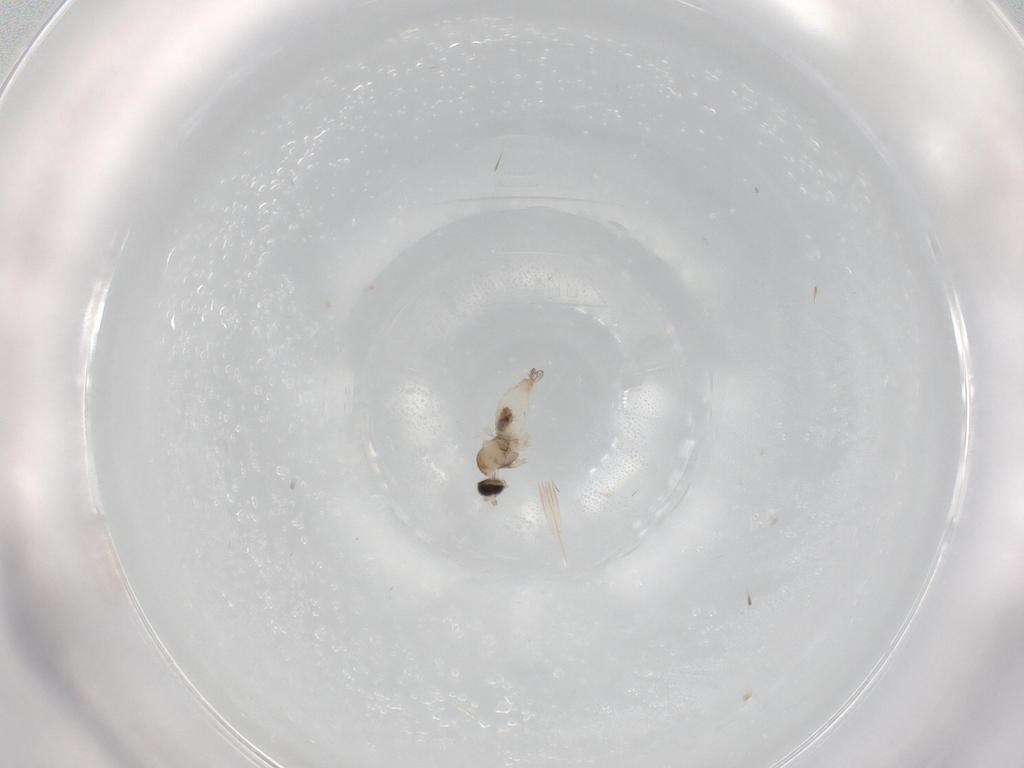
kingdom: Animalia
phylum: Arthropoda
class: Insecta
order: Diptera
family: Cecidomyiidae
